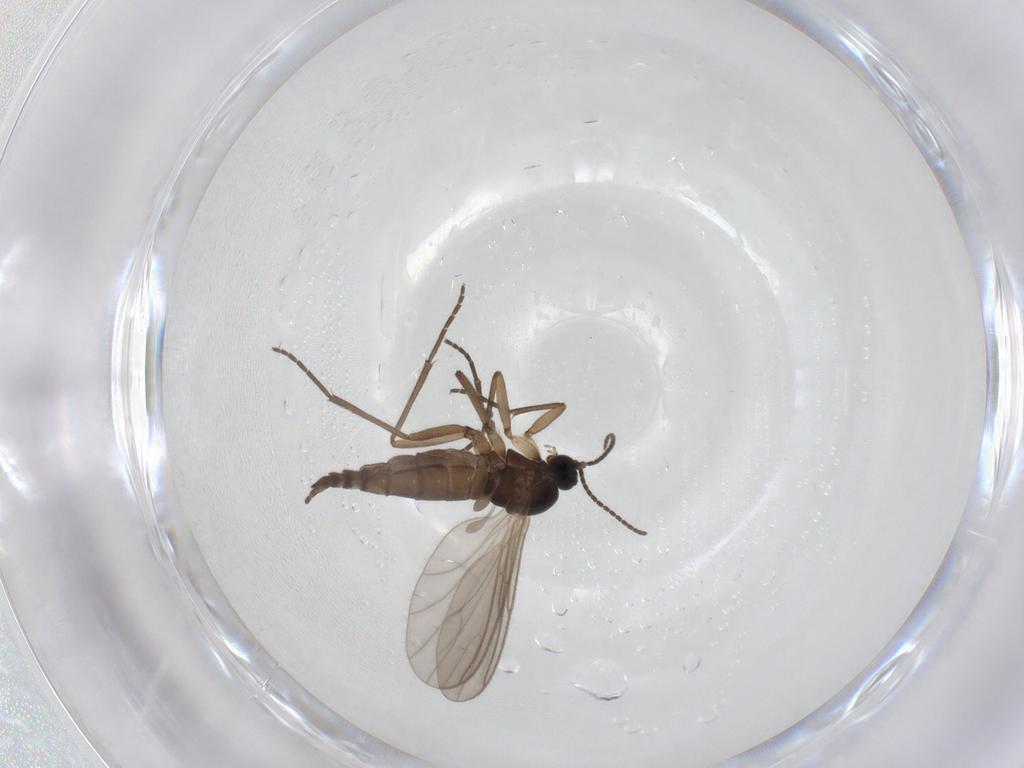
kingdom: Animalia
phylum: Arthropoda
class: Insecta
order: Diptera
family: Sciaridae
